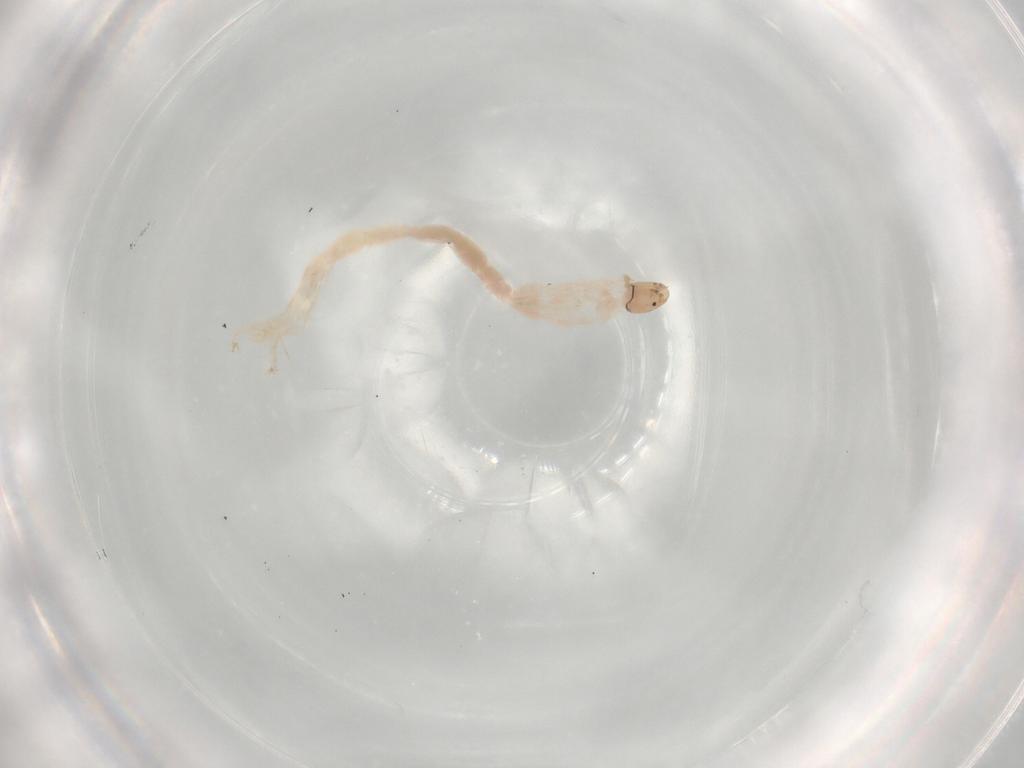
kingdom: Animalia
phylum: Arthropoda
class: Insecta
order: Diptera
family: Chironomidae
